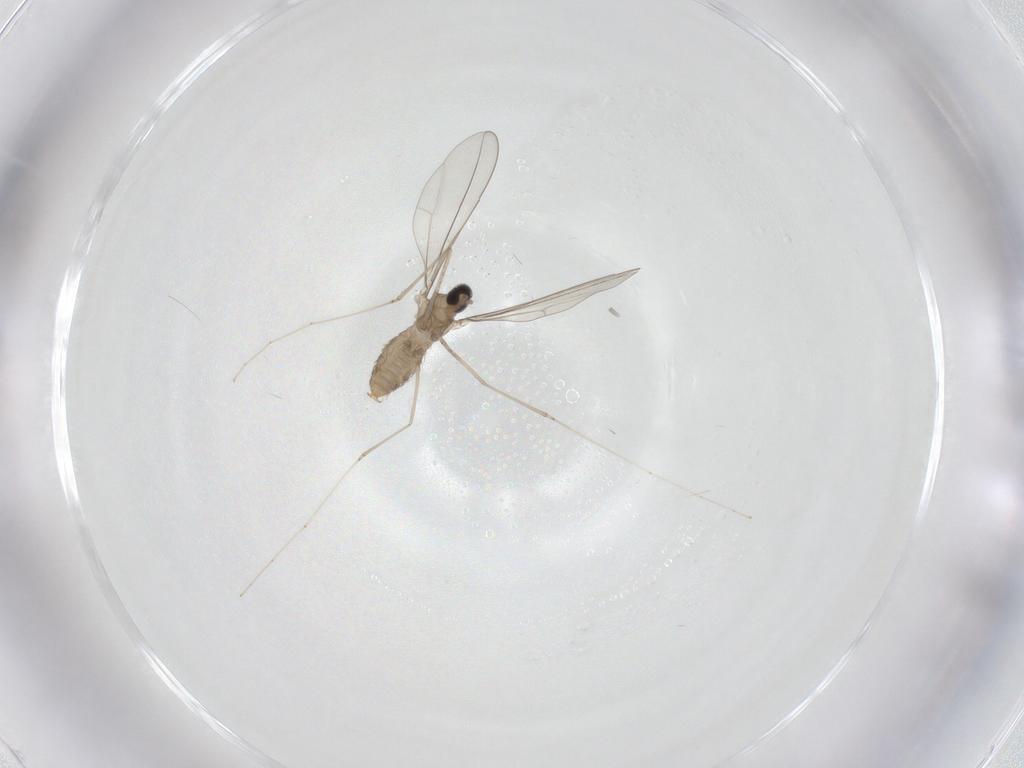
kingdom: Animalia
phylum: Arthropoda
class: Insecta
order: Diptera
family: Cecidomyiidae
